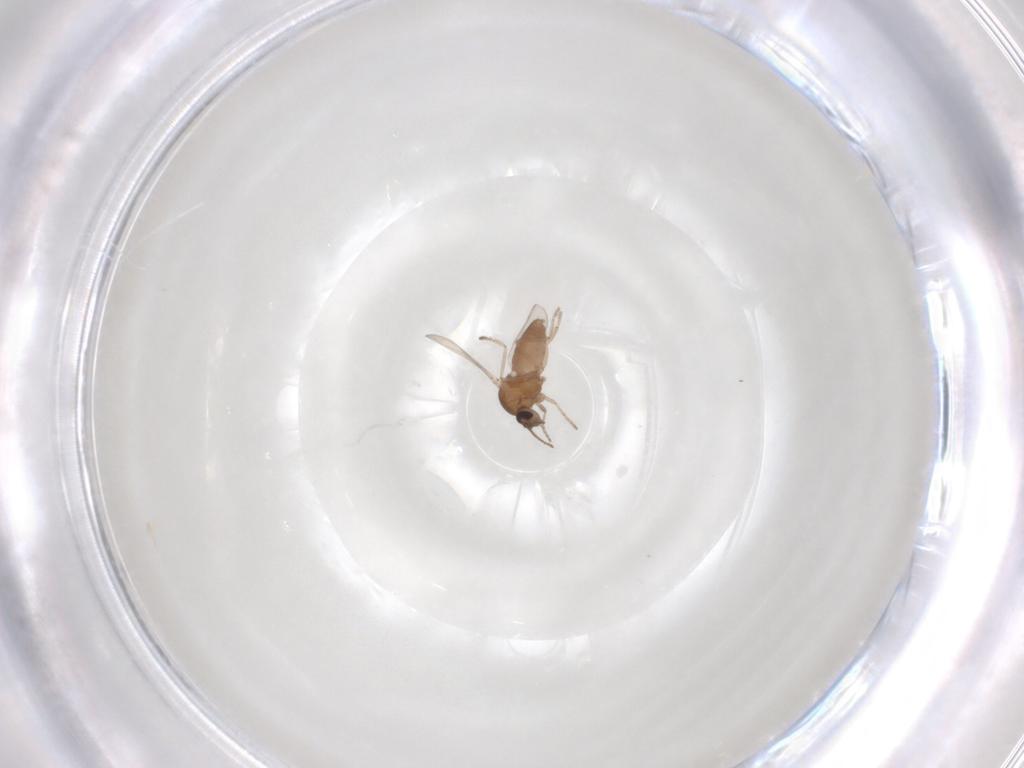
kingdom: Animalia
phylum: Arthropoda
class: Insecta
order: Diptera
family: Ceratopogonidae
